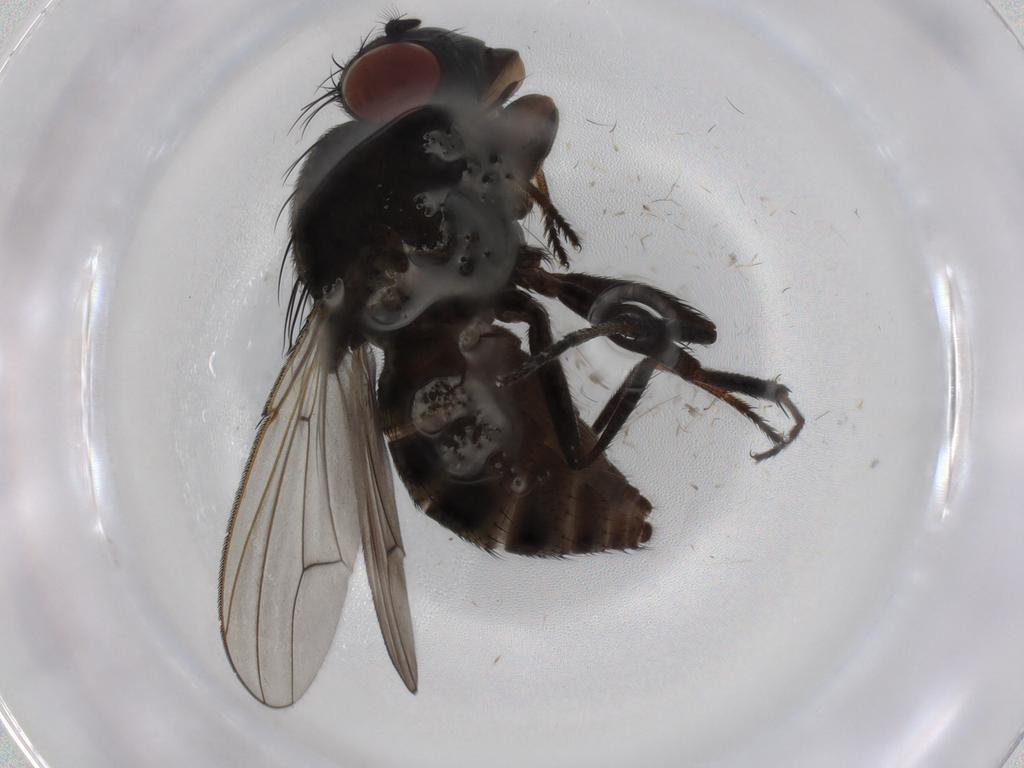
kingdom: Animalia
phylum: Arthropoda
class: Insecta
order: Diptera
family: Ephydridae
